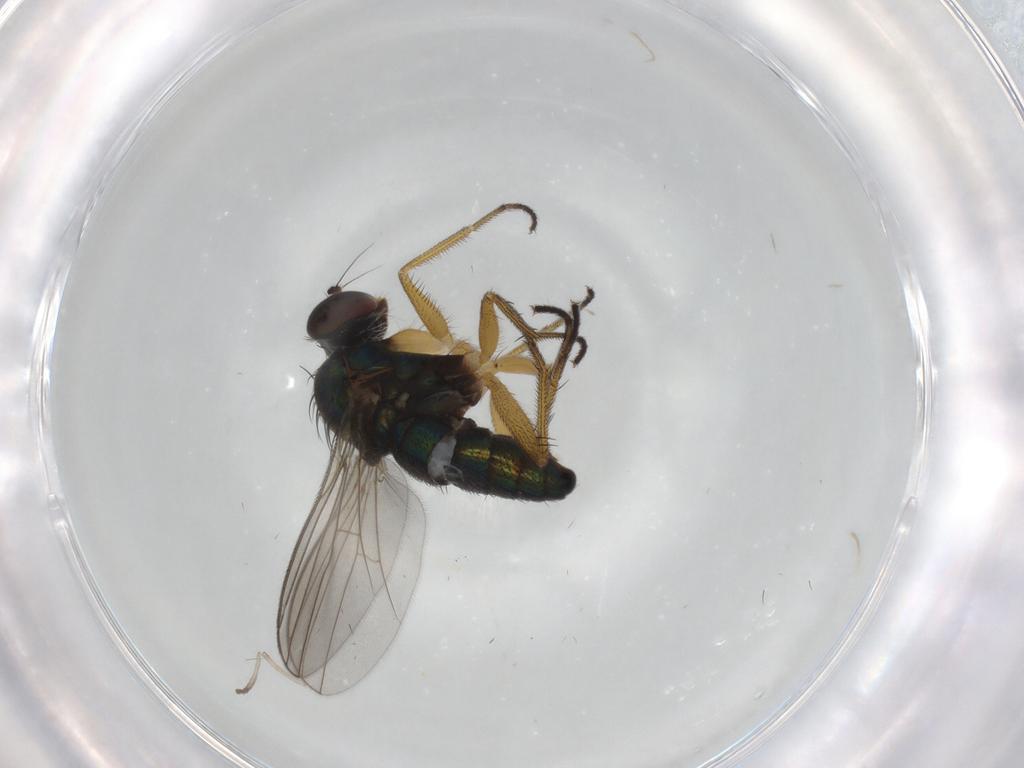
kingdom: Animalia
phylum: Arthropoda
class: Insecta
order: Diptera
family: Dolichopodidae
